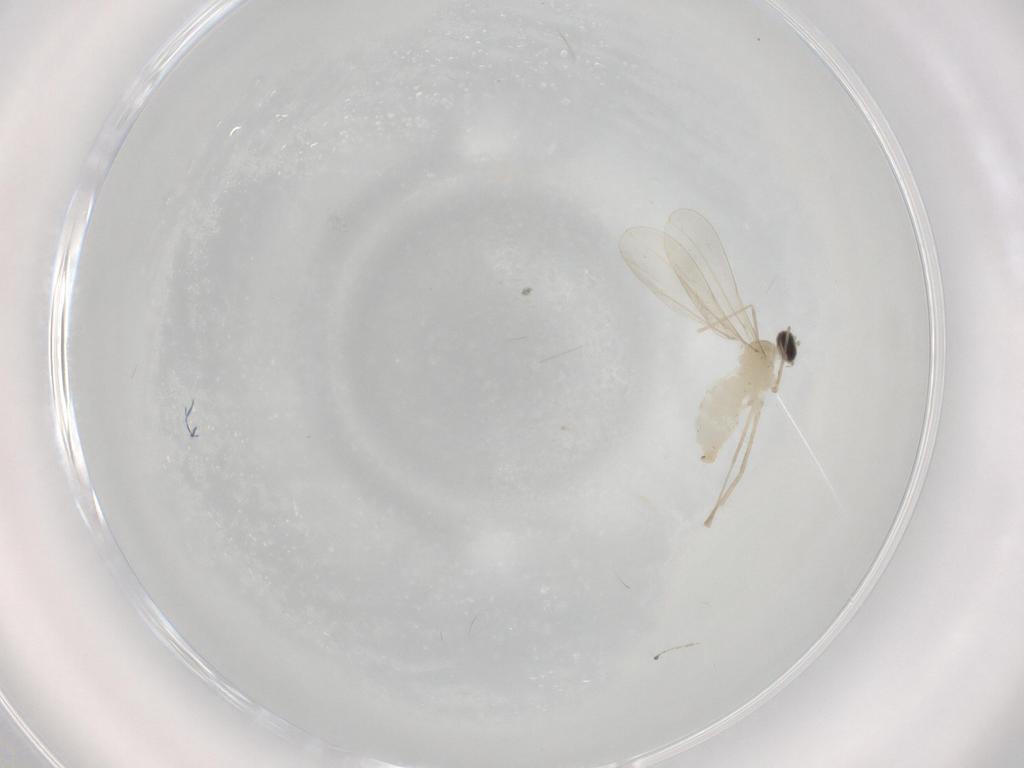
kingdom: Animalia
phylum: Arthropoda
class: Insecta
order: Diptera
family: Cecidomyiidae
